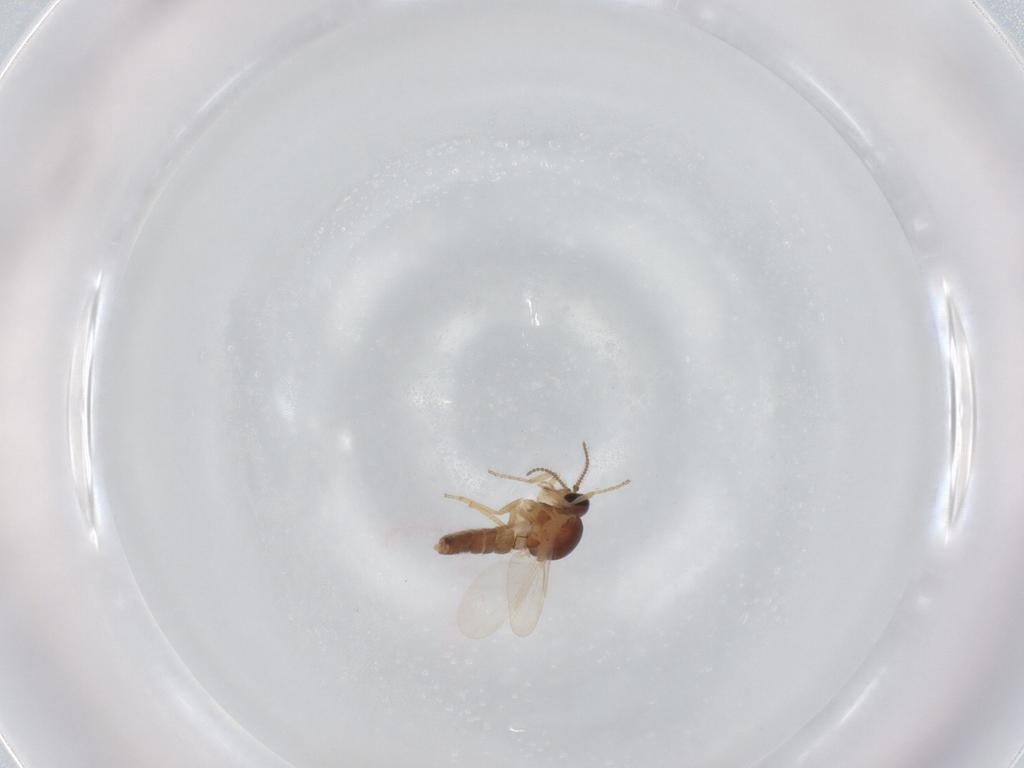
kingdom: Animalia
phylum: Arthropoda
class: Insecta
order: Diptera
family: Ceratopogonidae
